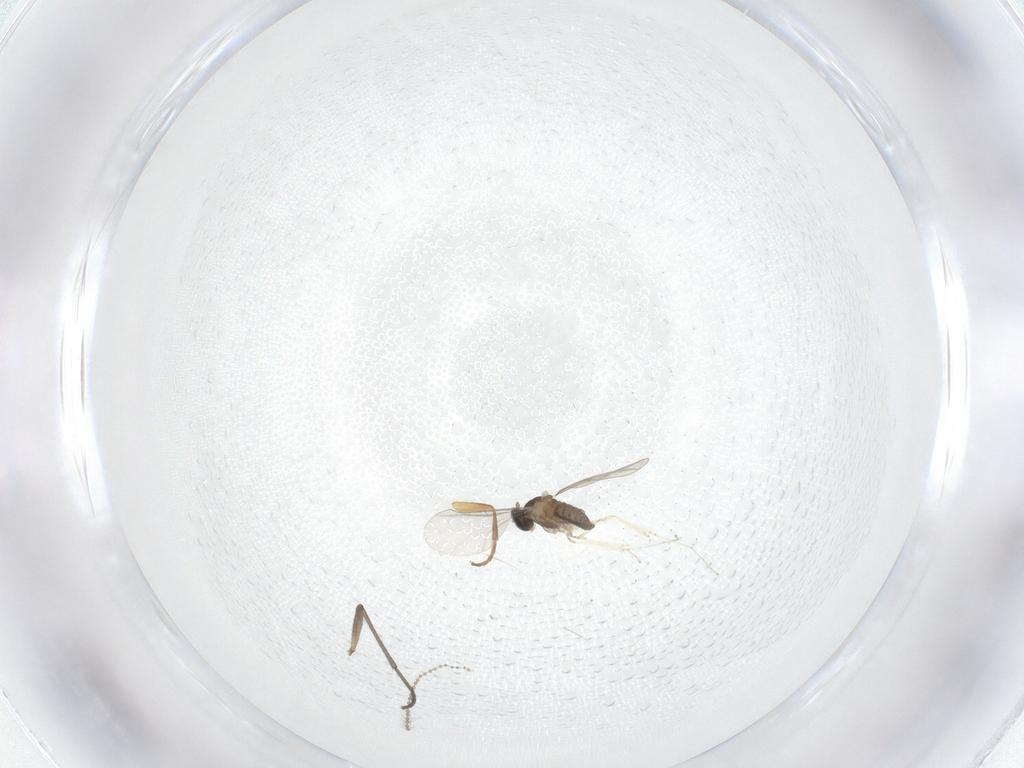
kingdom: Animalia
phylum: Arthropoda
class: Insecta
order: Diptera
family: Cecidomyiidae
